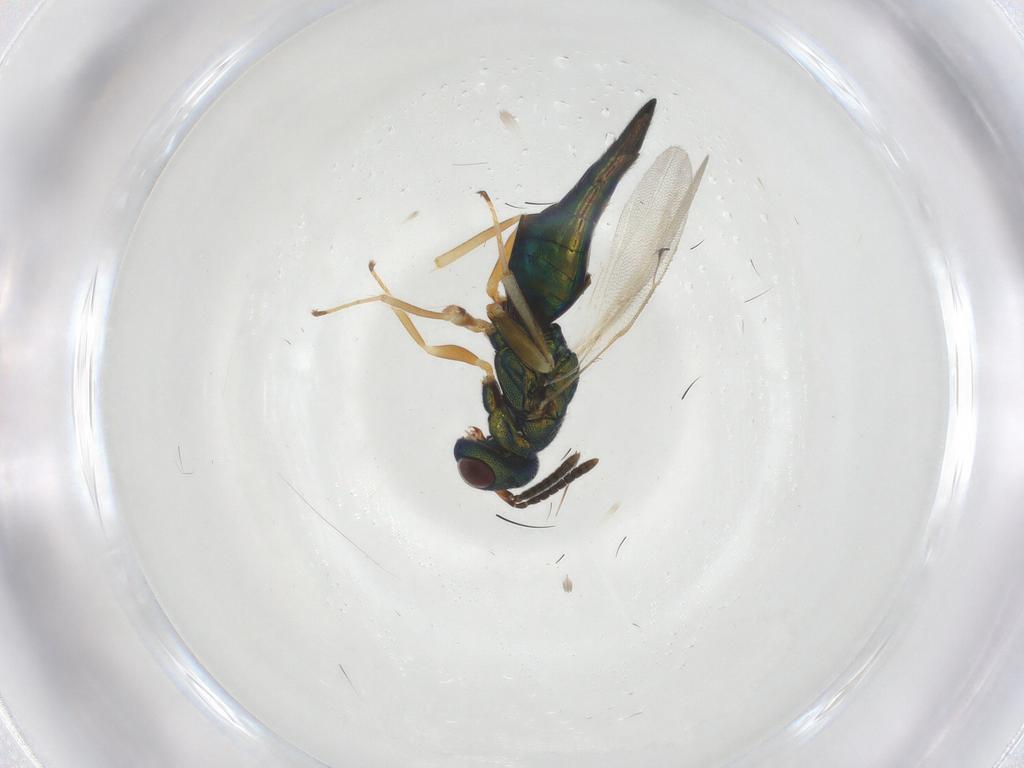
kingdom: Animalia
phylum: Arthropoda
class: Insecta
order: Hymenoptera
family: Pteromalidae
